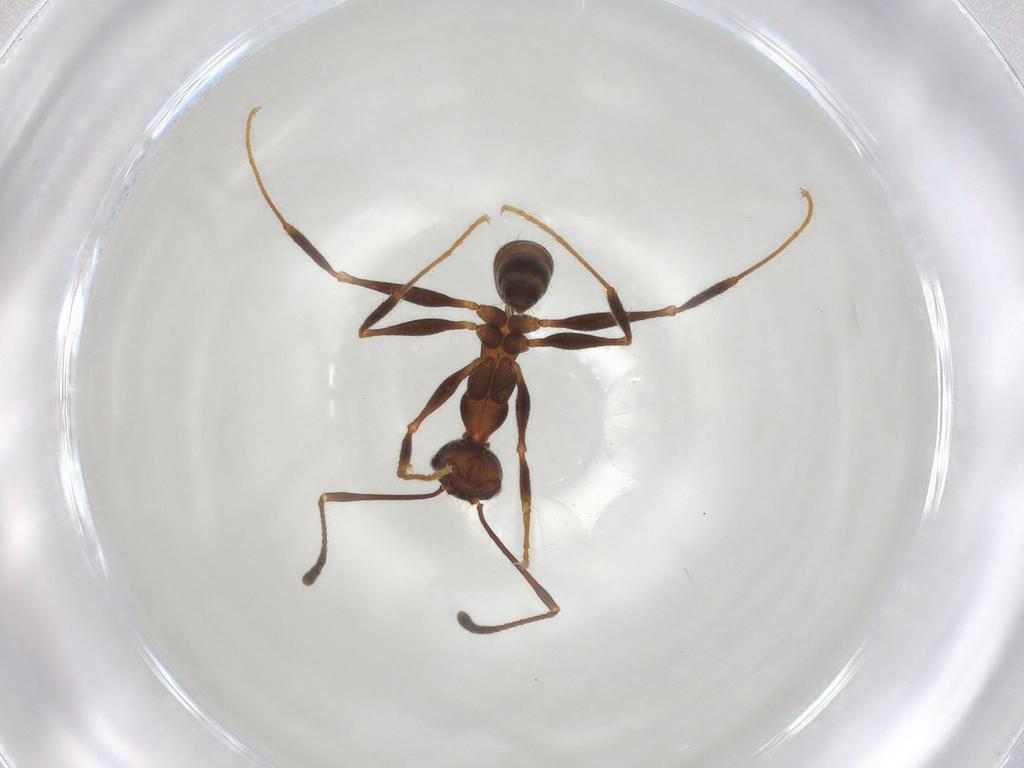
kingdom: Animalia
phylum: Arthropoda
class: Insecta
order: Hymenoptera
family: Formicidae
